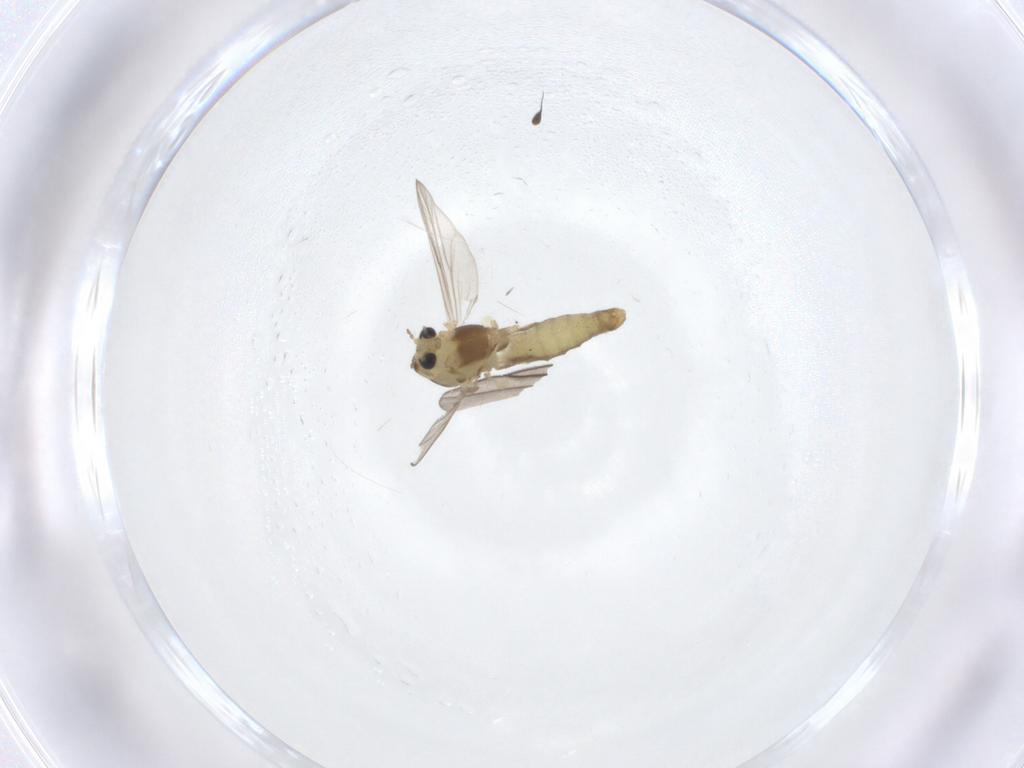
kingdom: Animalia
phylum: Arthropoda
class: Insecta
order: Diptera
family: Chironomidae
